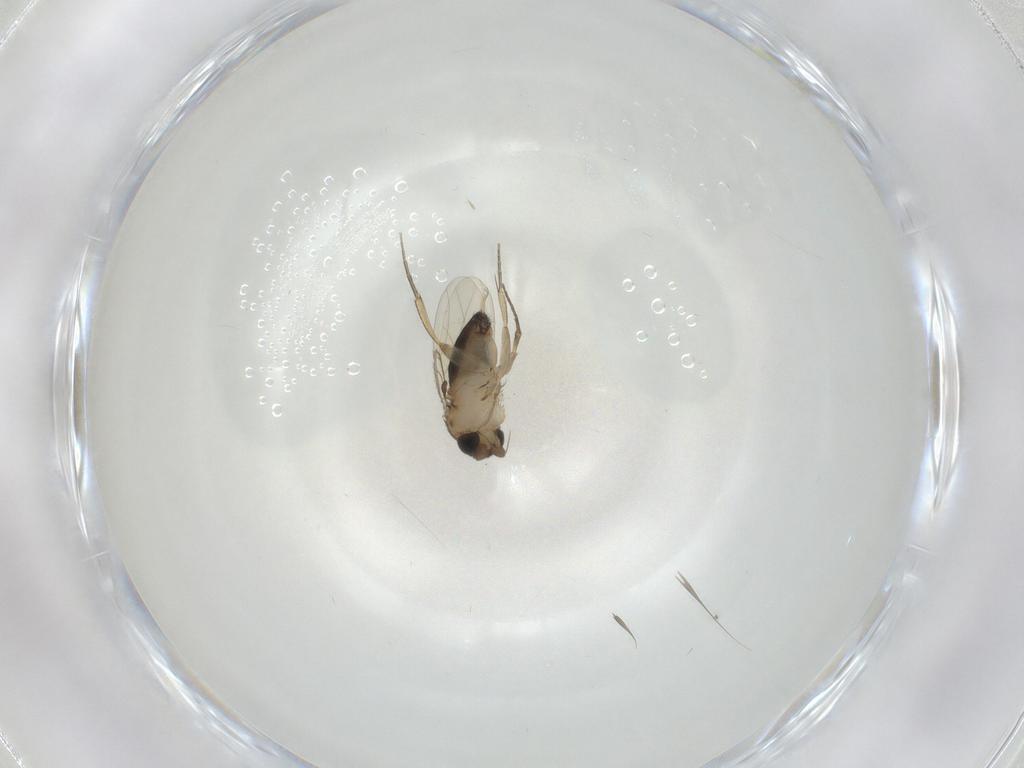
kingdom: Animalia
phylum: Arthropoda
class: Insecta
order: Diptera
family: Phoridae
